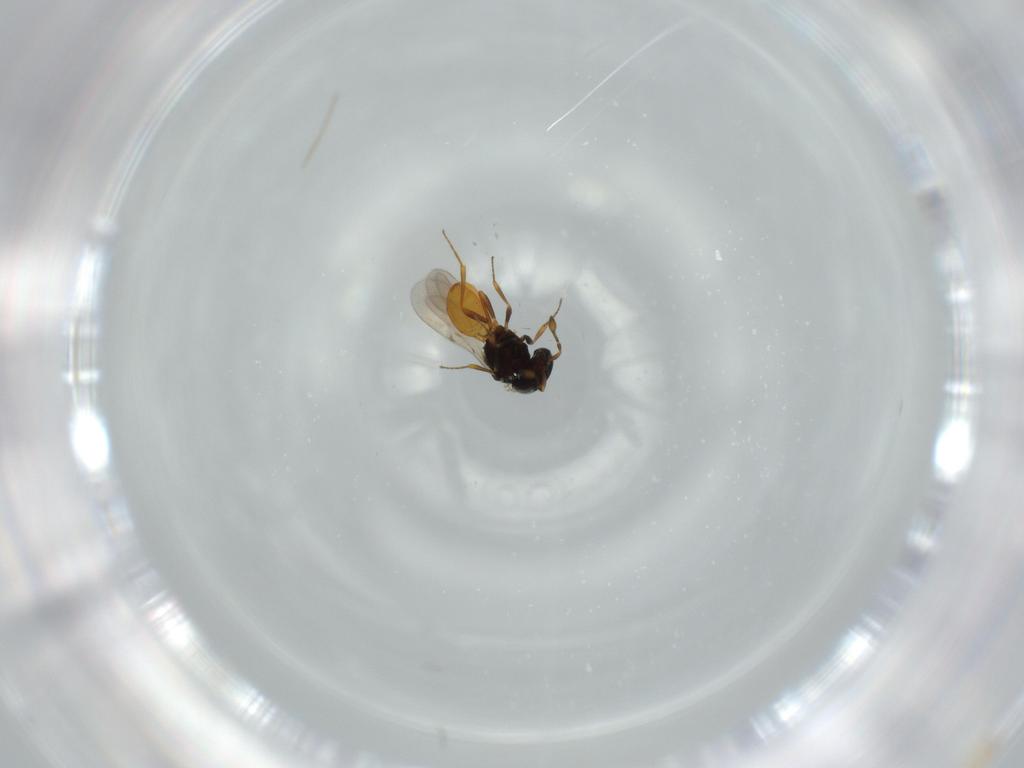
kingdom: Animalia
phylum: Arthropoda
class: Insecta
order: Hymenoptera
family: Scelionidae
